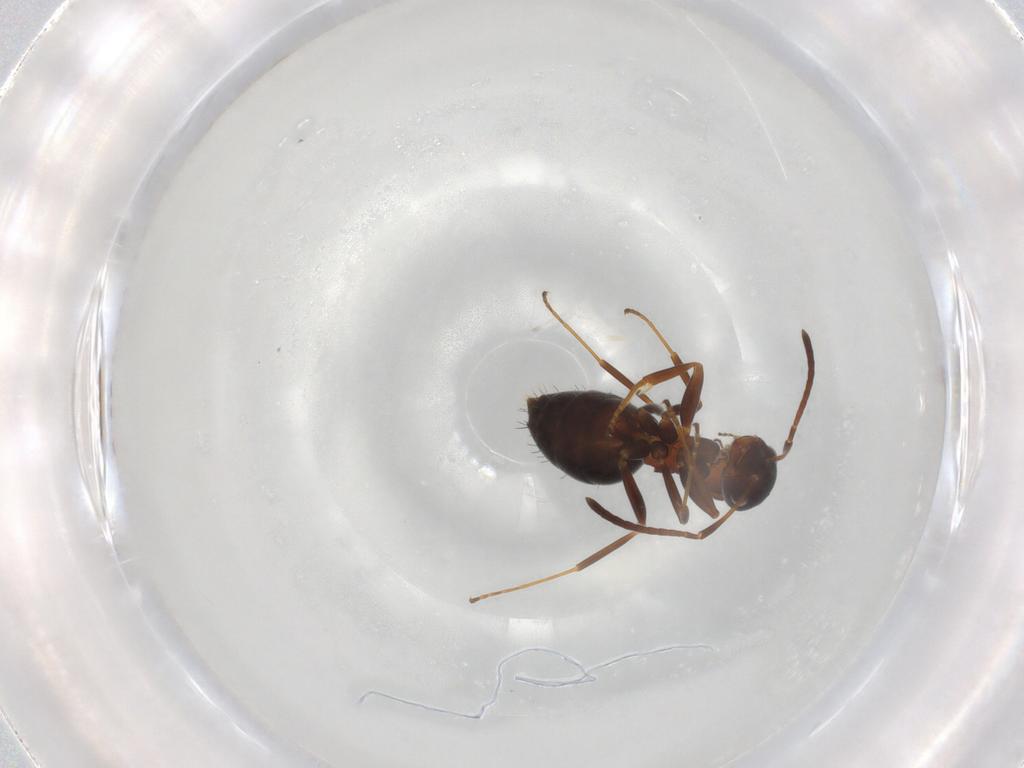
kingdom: Animalia
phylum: Arthropoda
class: Insecta
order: Hymenoptera
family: Formicidae
